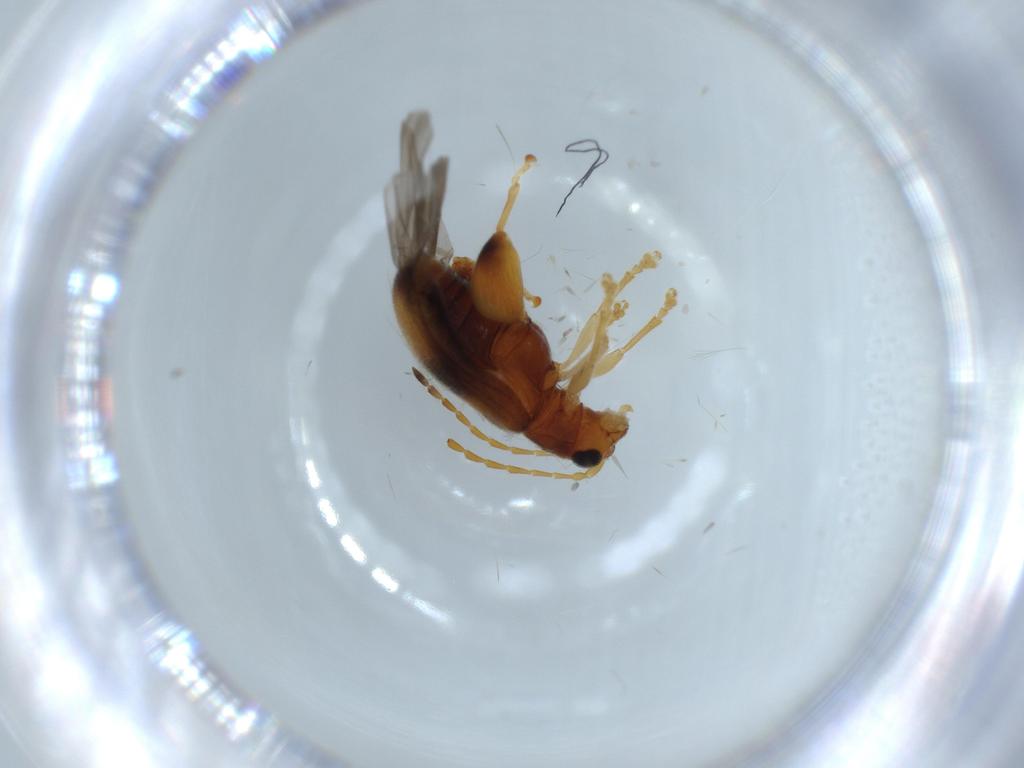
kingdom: Animalia
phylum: Arthropoda
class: Insecta
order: Coleoptera
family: Chrysomelidae
